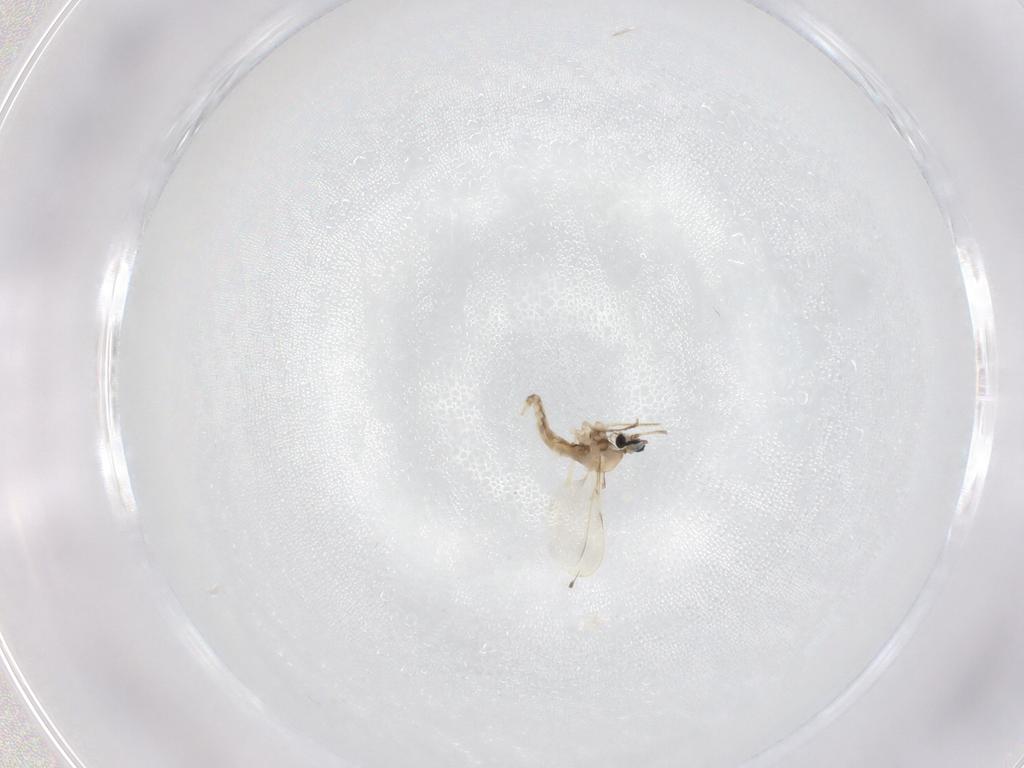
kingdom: Animalia
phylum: Arthropoda
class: Insecta
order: Diptera
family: Cecidomyiidae
